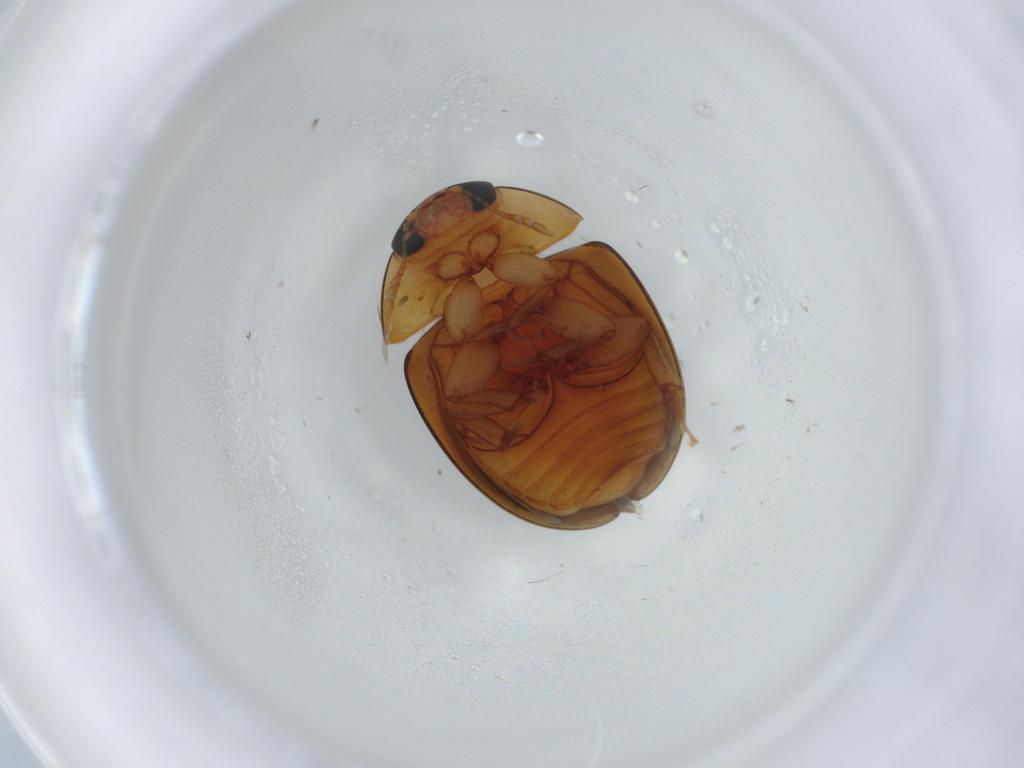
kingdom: Animalia
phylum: Arthropoda
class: Insecta
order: Coleoptera
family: Phalacridae
